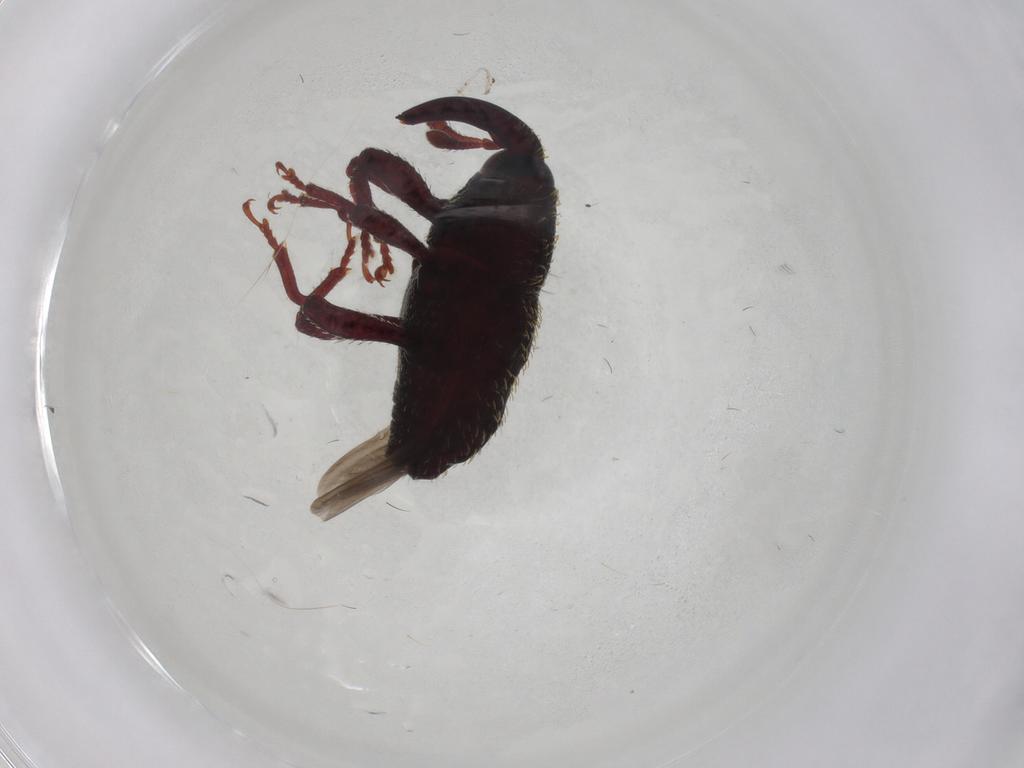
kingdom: Animalia
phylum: Arthropoda
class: Insecta
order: Coleoptera
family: Curculionidae
